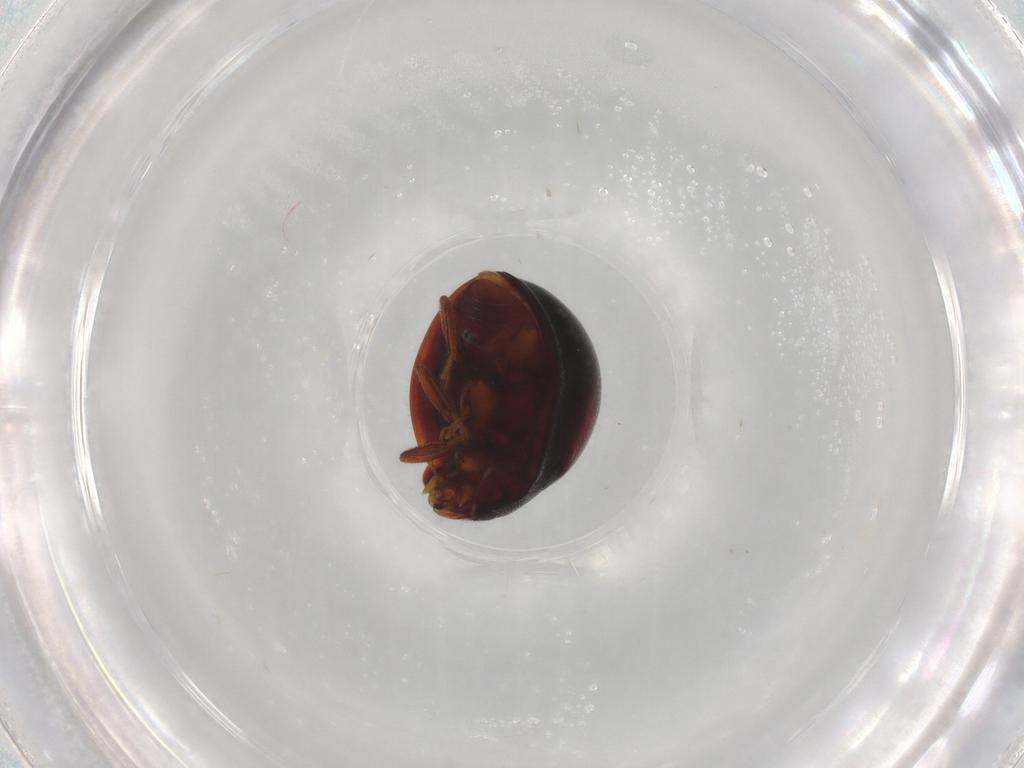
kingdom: Animalia
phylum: Arthropoda
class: Insecta
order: Coleoptera
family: Coccinellidae
